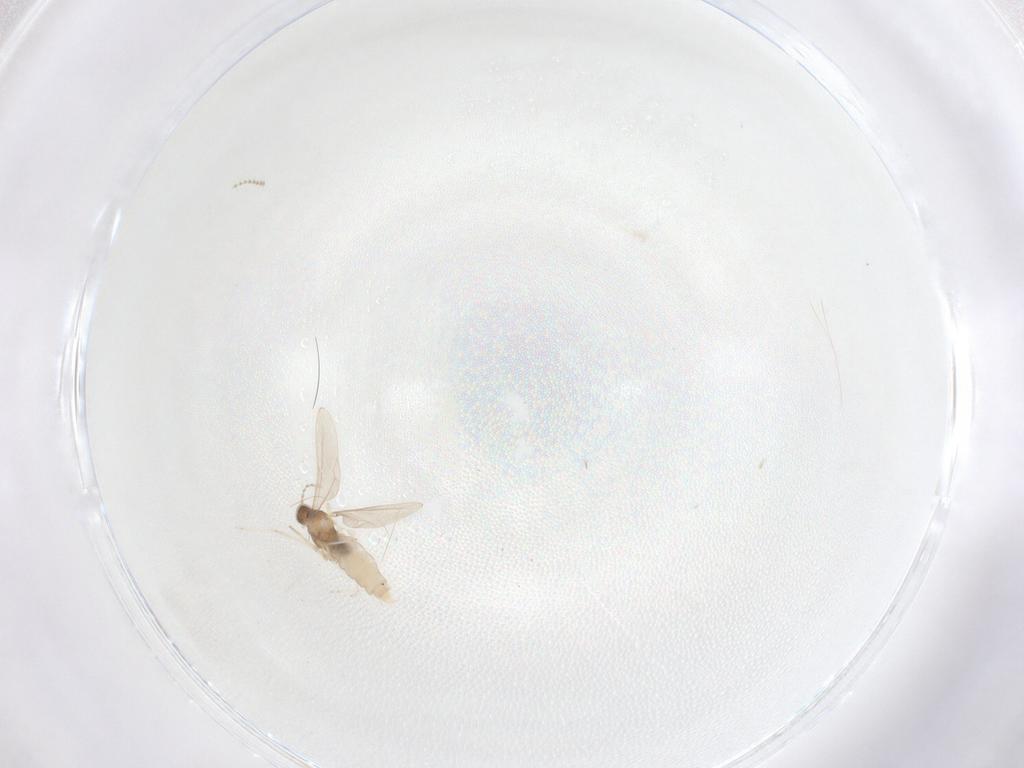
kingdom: Animalia
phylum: Arthropoda
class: Insecta
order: Diptera
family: Cecidomyiidae
